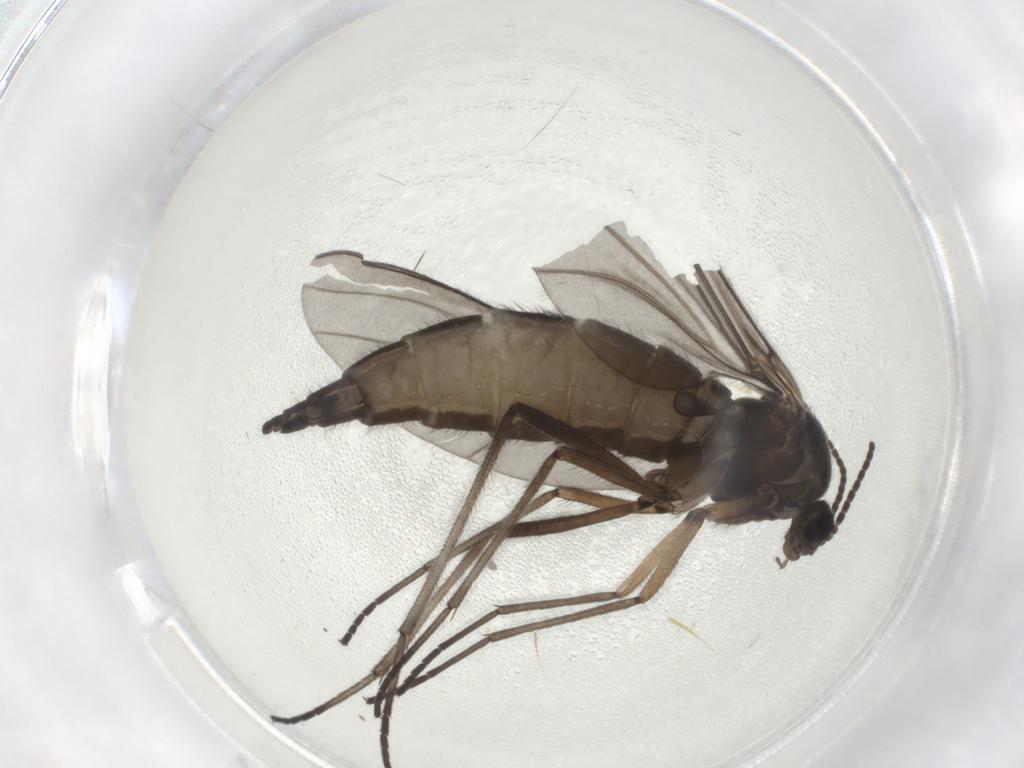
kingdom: Animalia
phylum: Arthropoda
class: Insecta
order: Diptera
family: Sciaridae
